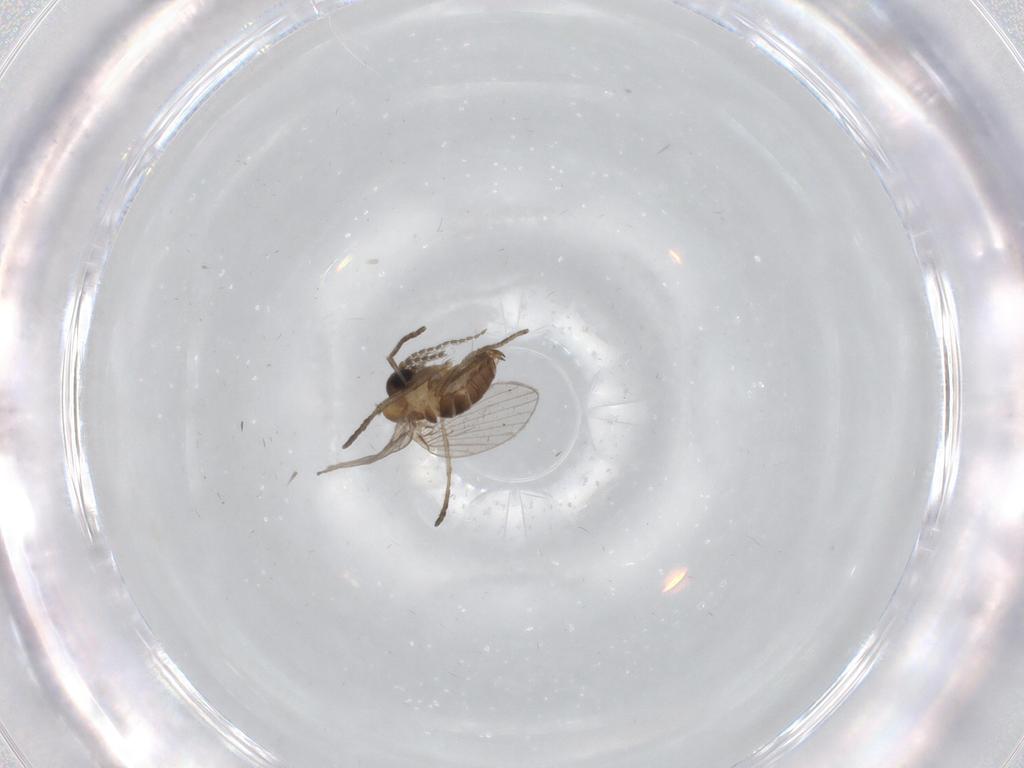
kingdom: Animalia
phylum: Arthropoda
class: Insecta
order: Diptera
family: Psychodidae
